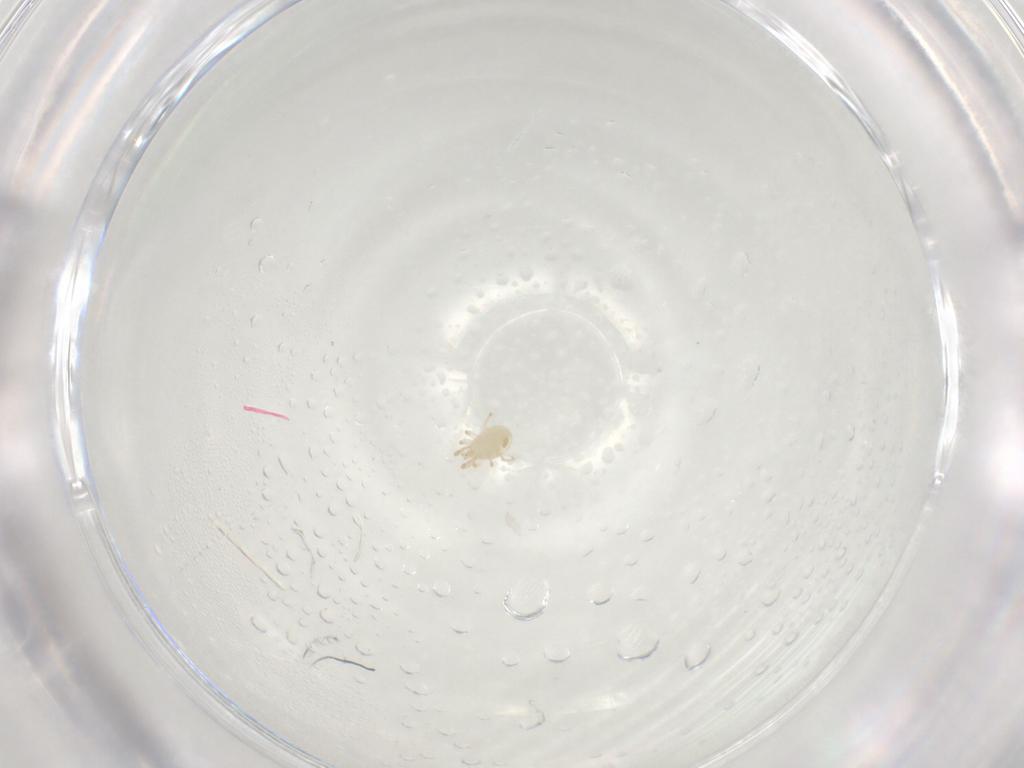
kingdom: Animalia
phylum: Arthropoda
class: Arachnida
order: Mesostigmata
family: Phytoseiidae
